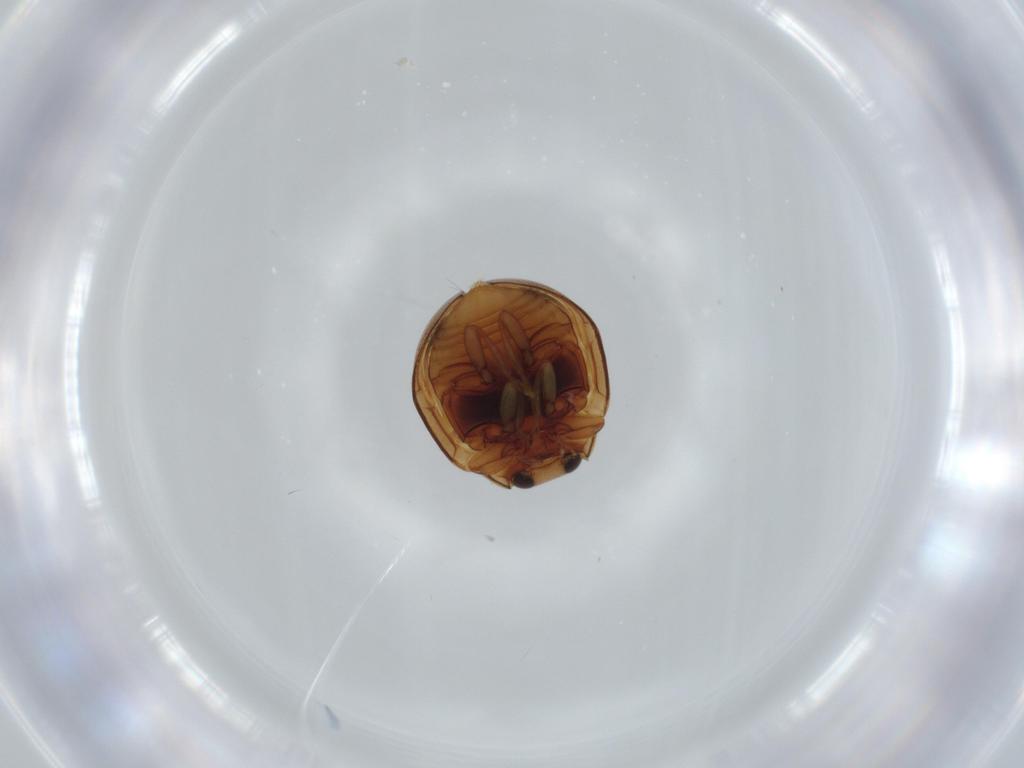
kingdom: Animalia
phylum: Arthropoda
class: Insecta
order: Coleoptera
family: Coccinellidae
